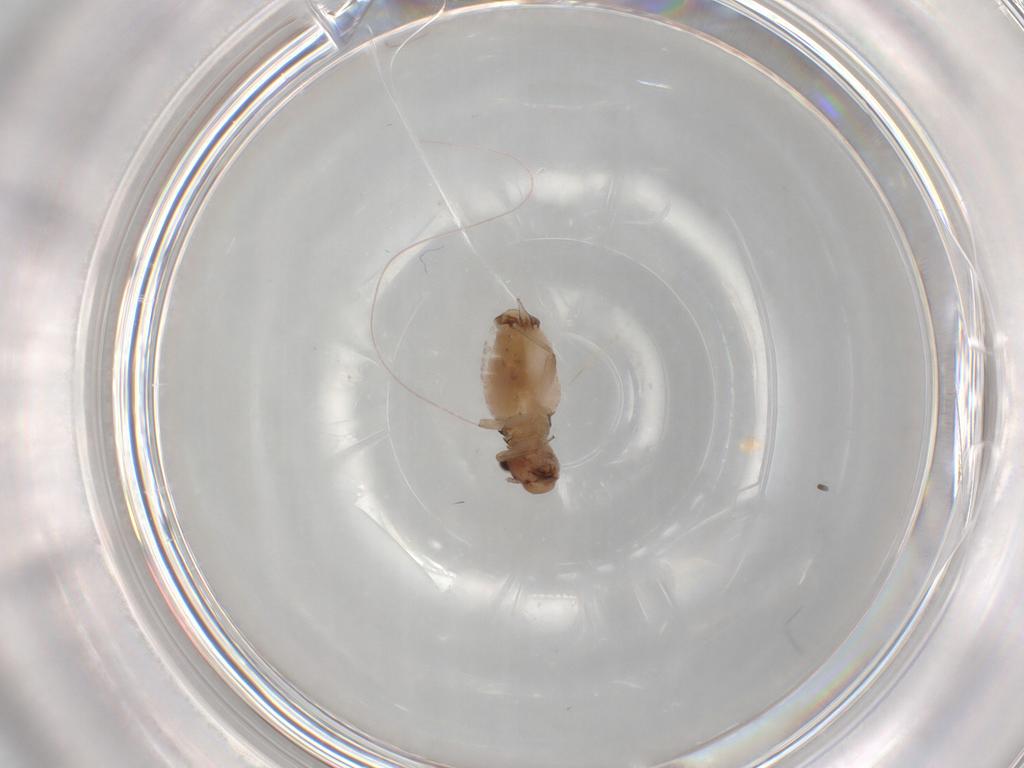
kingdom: Animalia
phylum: Arthropoda
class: Insecta
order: Psocodea
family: Trogiidae
